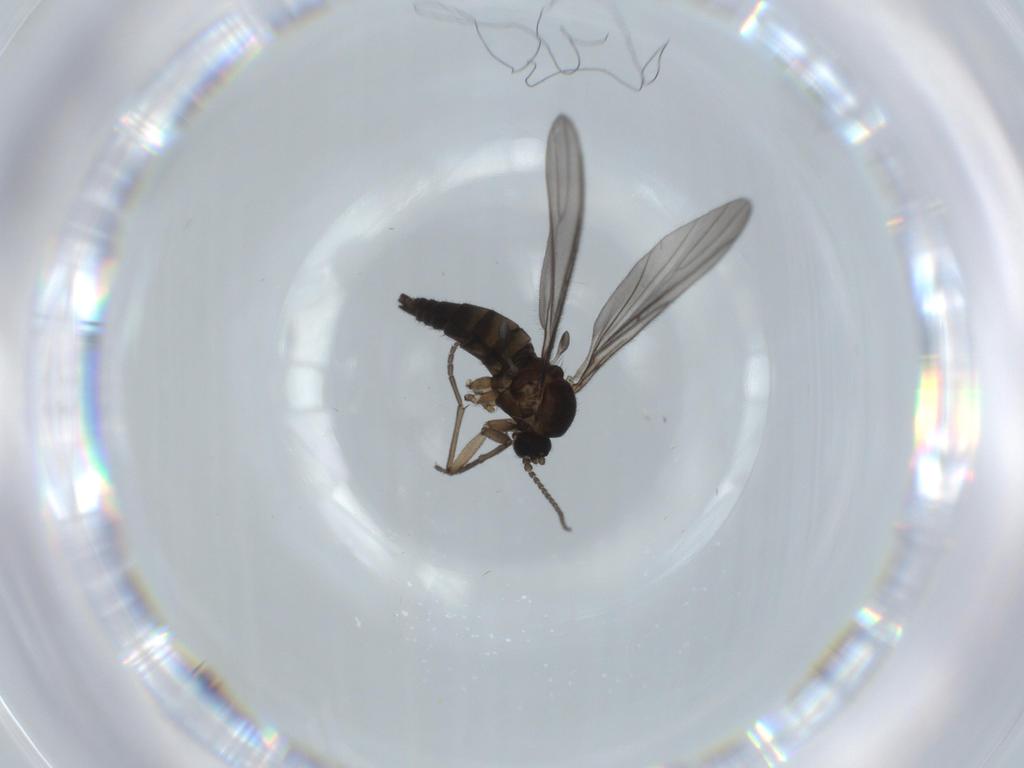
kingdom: Animalia
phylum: Arthropoda
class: Insecta
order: Diptera
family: Sciaridae
